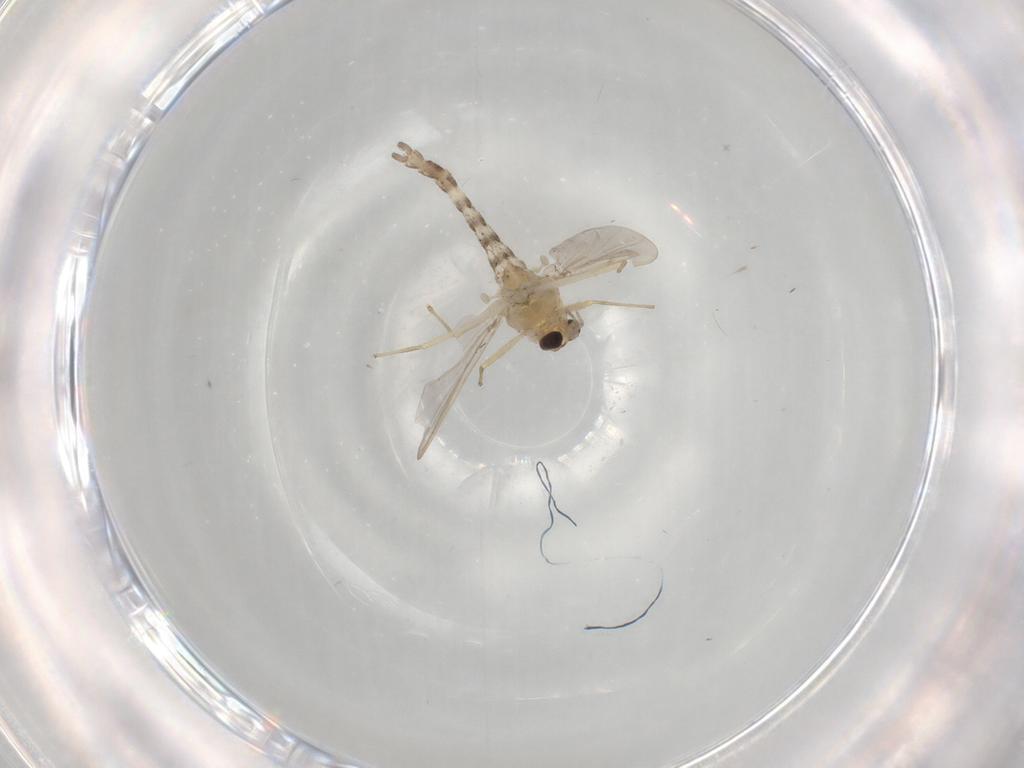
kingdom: Animalia
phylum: Arthropoda
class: Insecta
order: Diptera
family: Chironomidae
